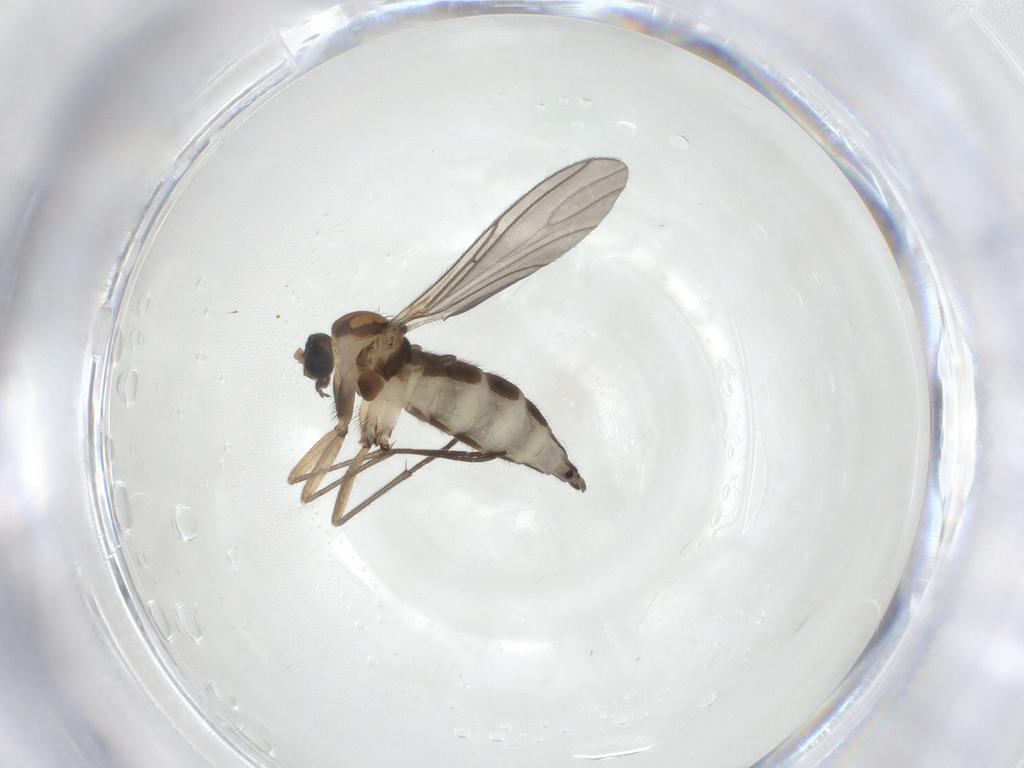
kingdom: Animalia
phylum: Arthropoda
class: Insecta
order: Diptera
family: Sciaridae
